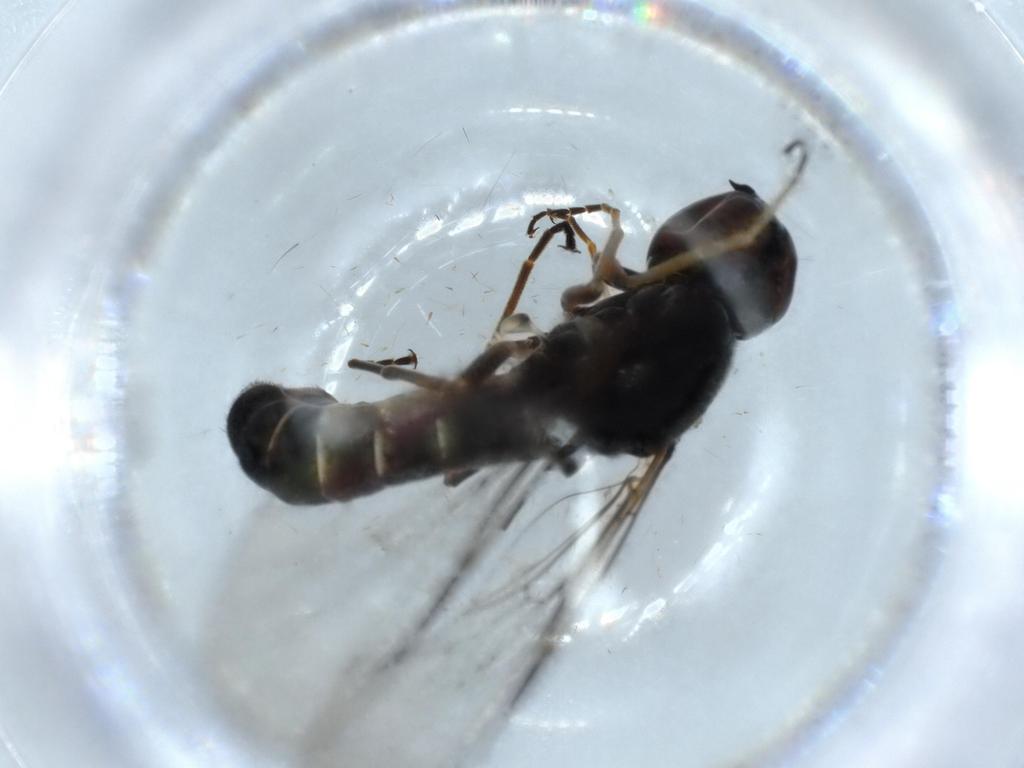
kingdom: Animalia
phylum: Arthropoda
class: Insecta
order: Diptera
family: Bombyliidae
